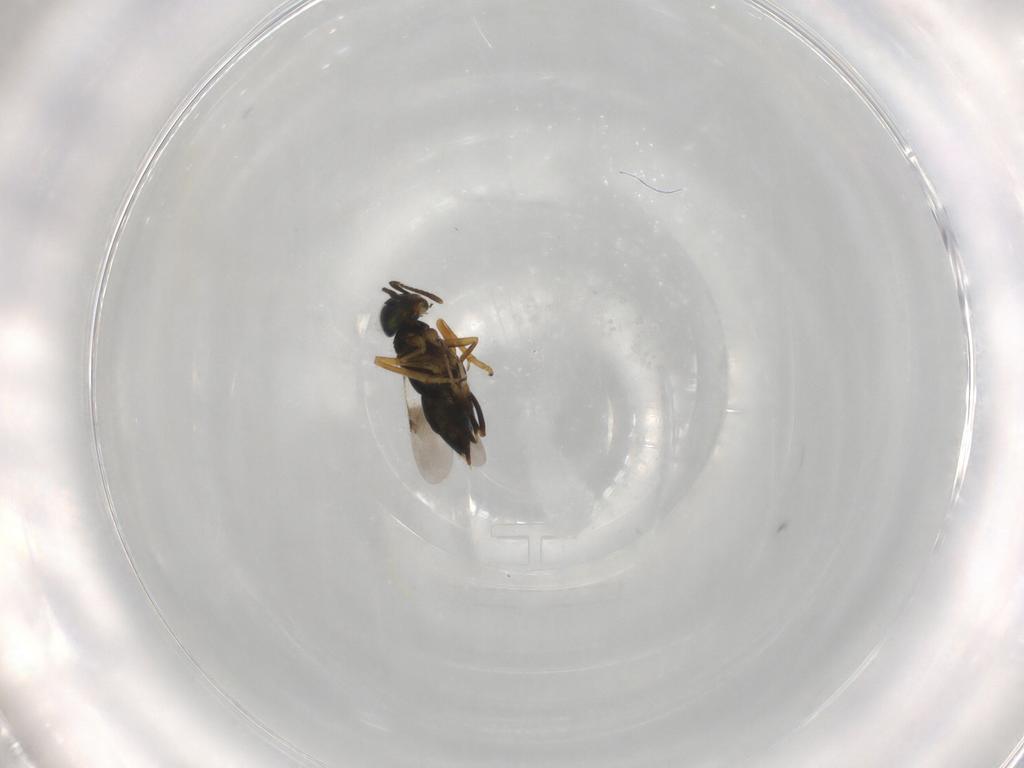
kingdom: Animalia
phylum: Arthropoda
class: Insecta
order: Hymenoptera
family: Encyrtidae
